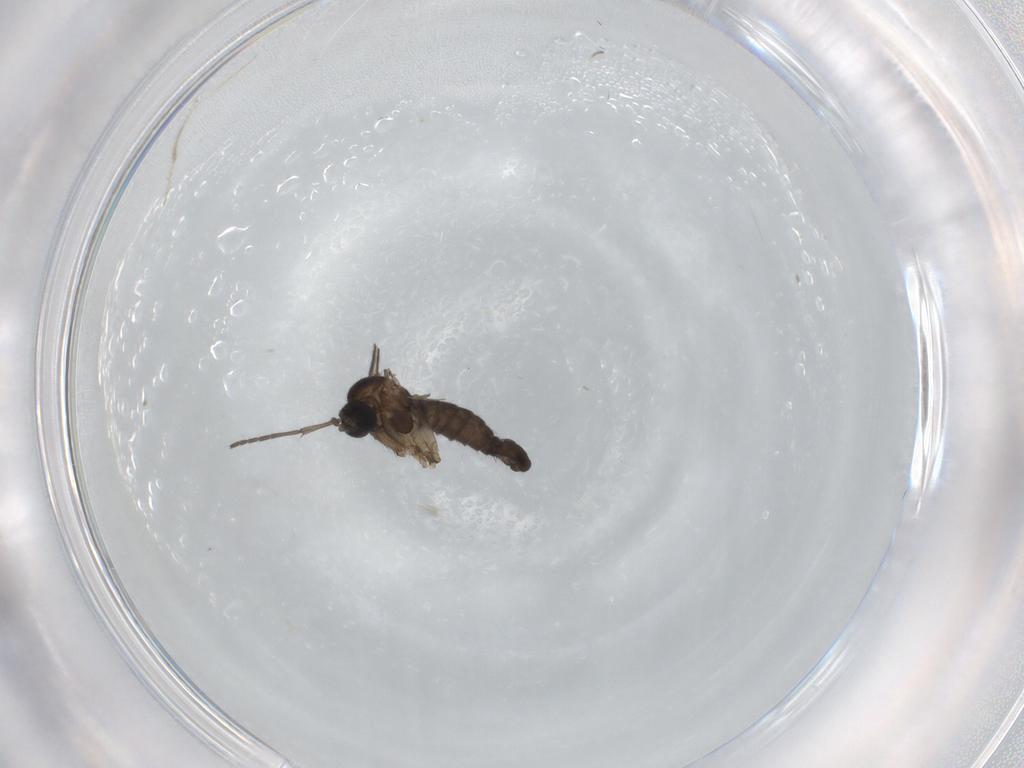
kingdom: Animalia
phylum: Arthropoda
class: Insecta
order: Diptera
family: Sciaridae
